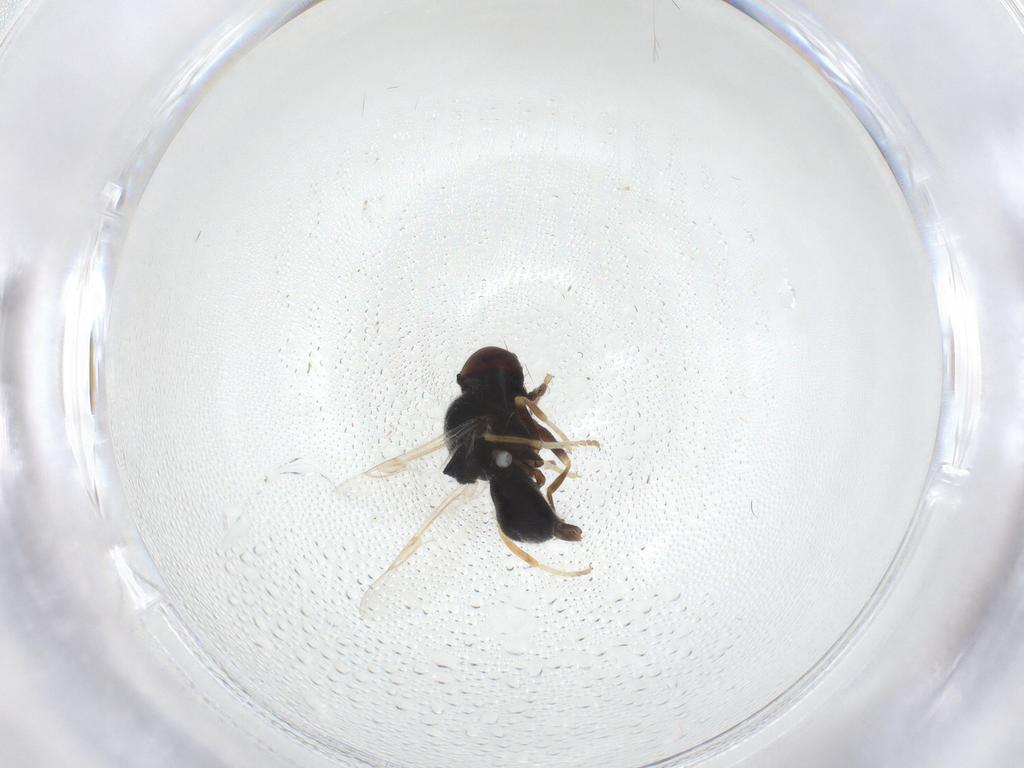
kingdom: Animalia
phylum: Arthropoda
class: Insecta
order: Diptera
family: Stratiomyidae
